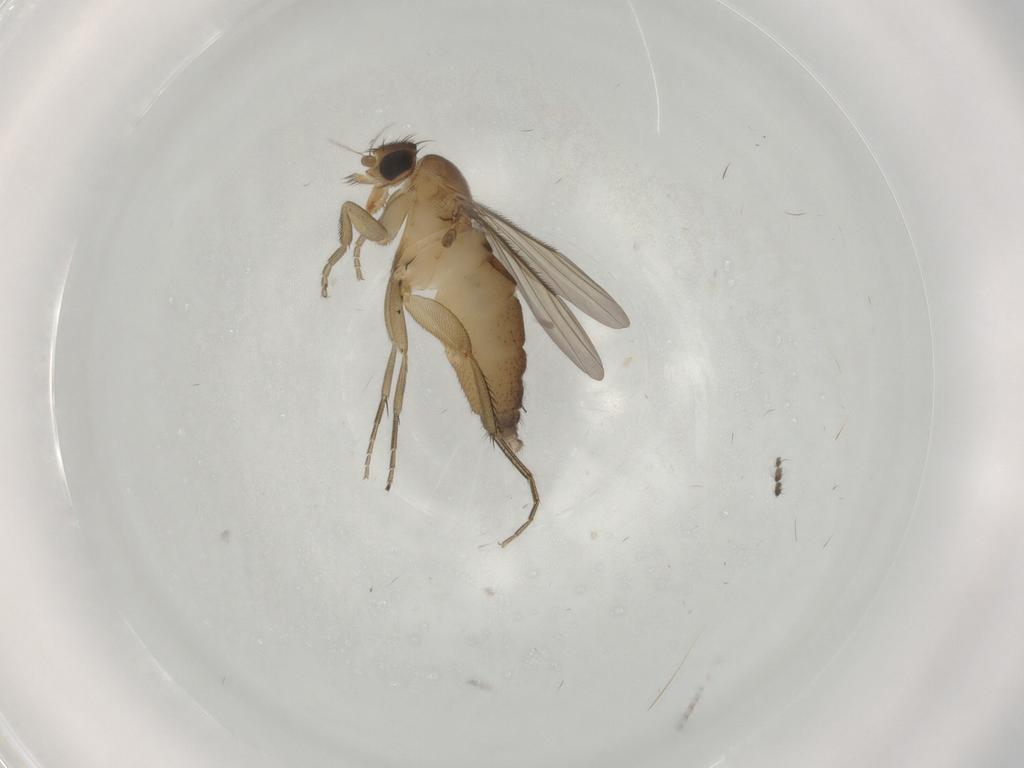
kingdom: Animalia
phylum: Arthropoda
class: Insecta
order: Diptera
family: Phoridae
